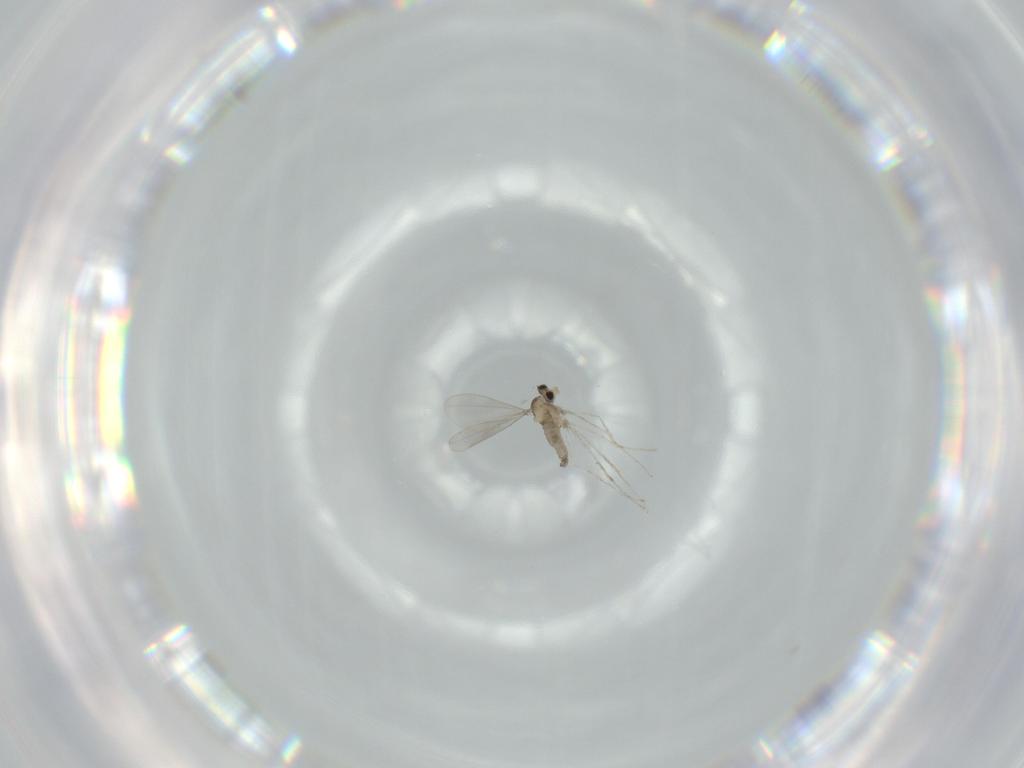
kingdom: Animalia
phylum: Arthropoda
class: Insecta
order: Diptera
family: Cecidomyiidae
